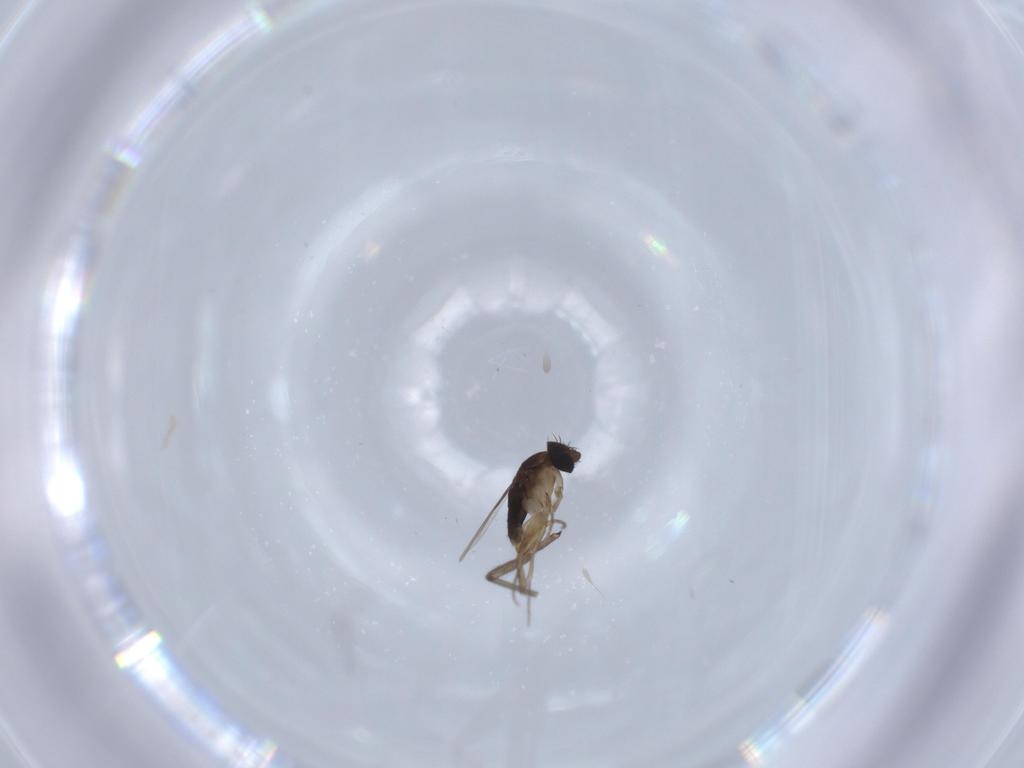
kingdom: Animalia
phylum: Arthropoda
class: Insecta
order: Diptera
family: Phoridae
